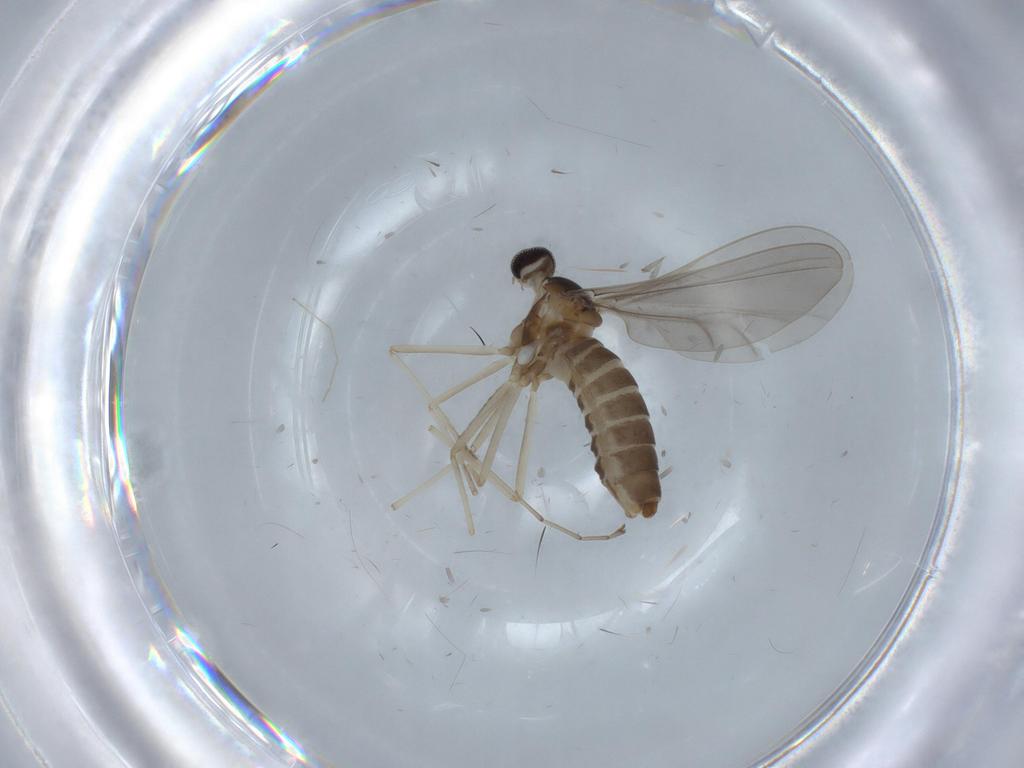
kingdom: Animalia
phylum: Arthropoda
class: Insecta
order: Diptera
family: Cecidomyiidae
